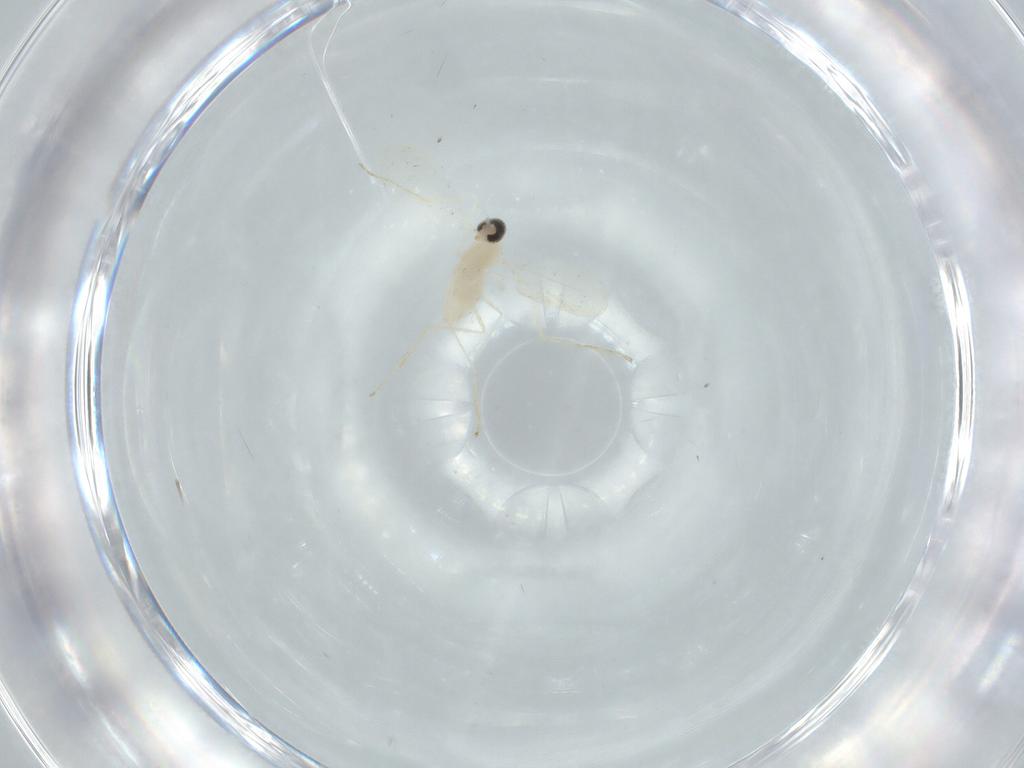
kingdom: Animalia
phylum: Arthropoda
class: Insecta
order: Diptera
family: Cecidomyiidae
